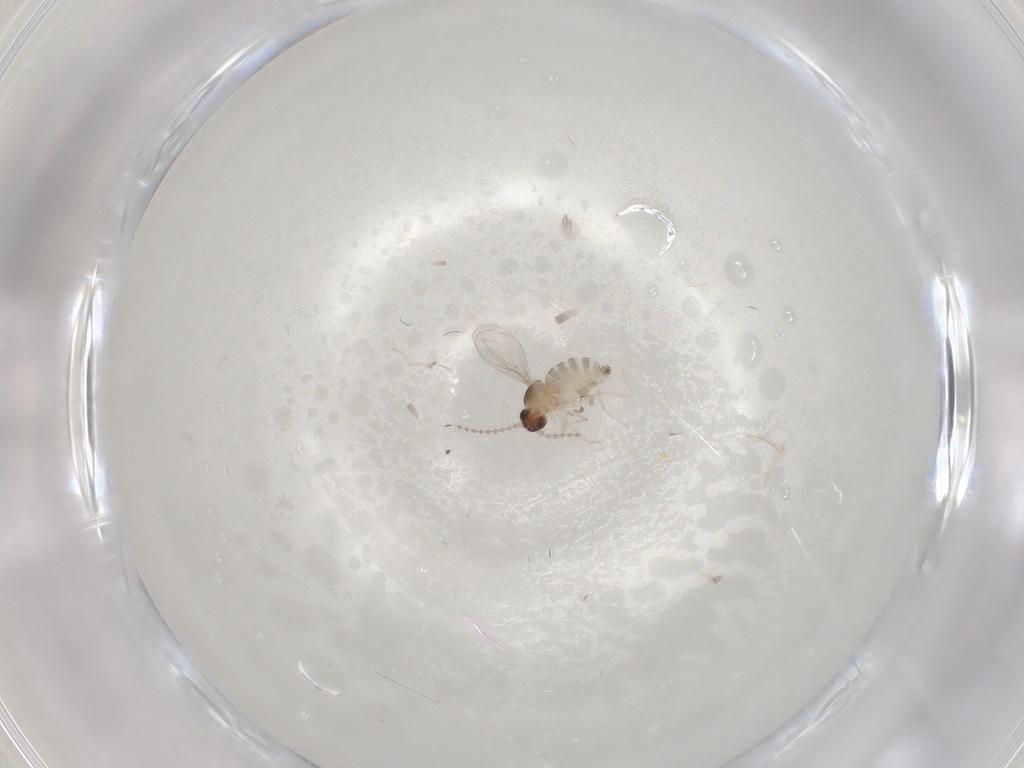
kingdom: Animalia
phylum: Arthropoda
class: Insecta
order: Diptera
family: Cecidomyiidae
